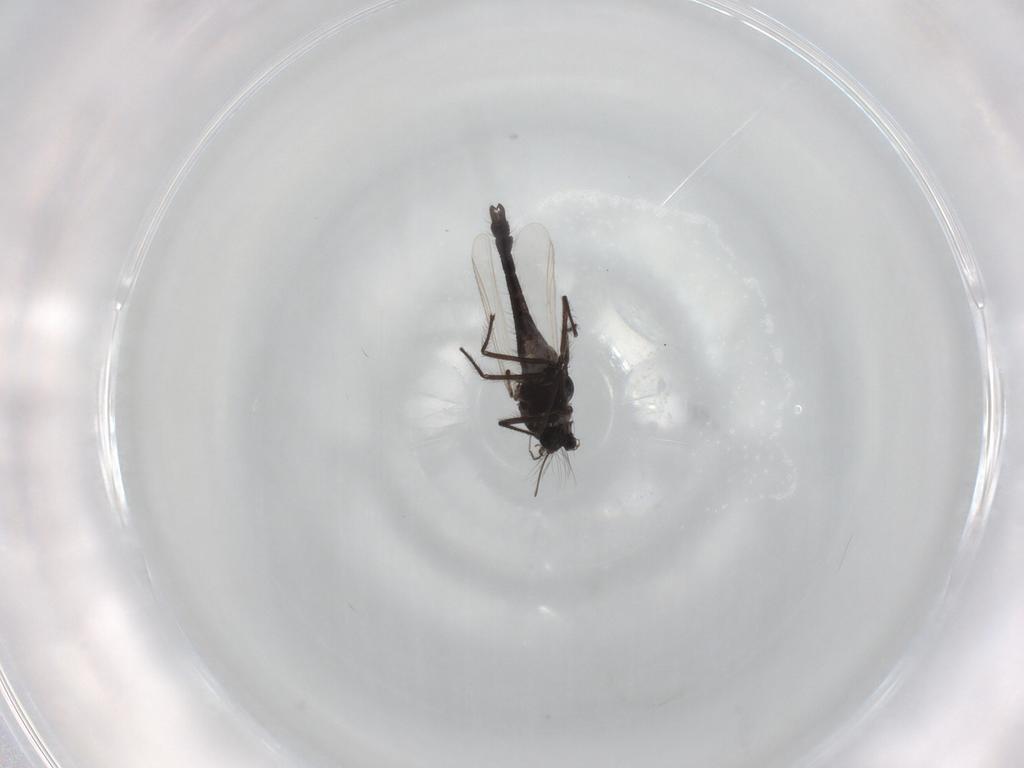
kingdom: Animalia
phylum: Arthropoda
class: Insecta
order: Diptera
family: Chironomidae
